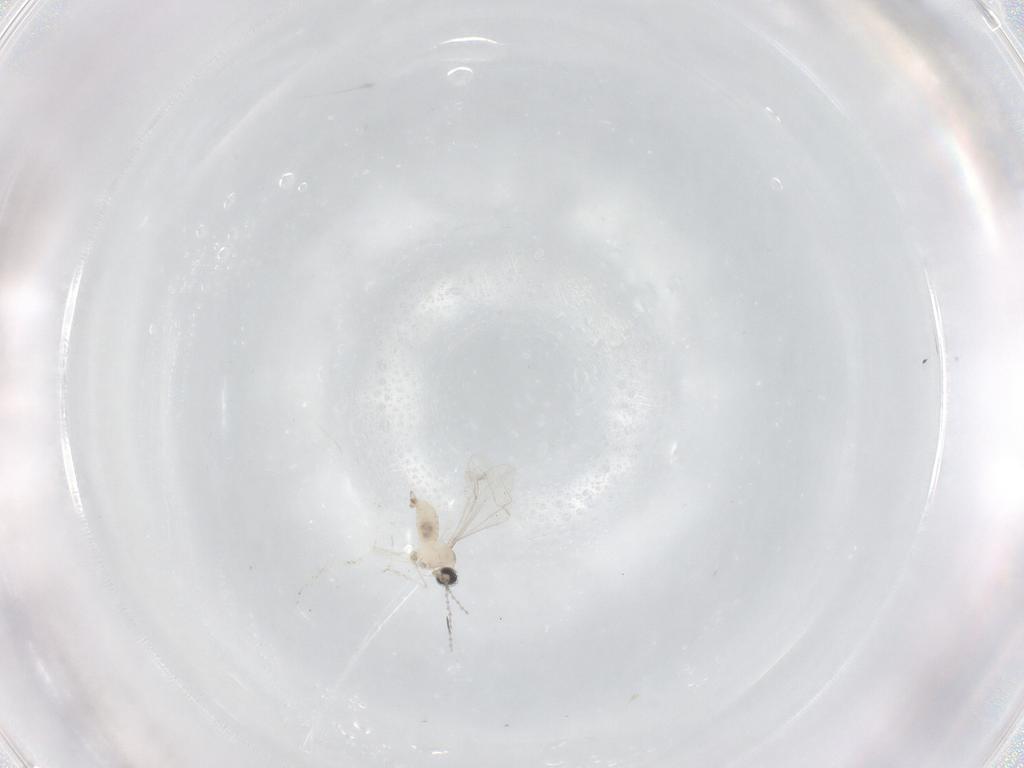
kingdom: Animalia
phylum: Arthropoda
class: Insecta
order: Diptera
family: Cecidomyiidae
